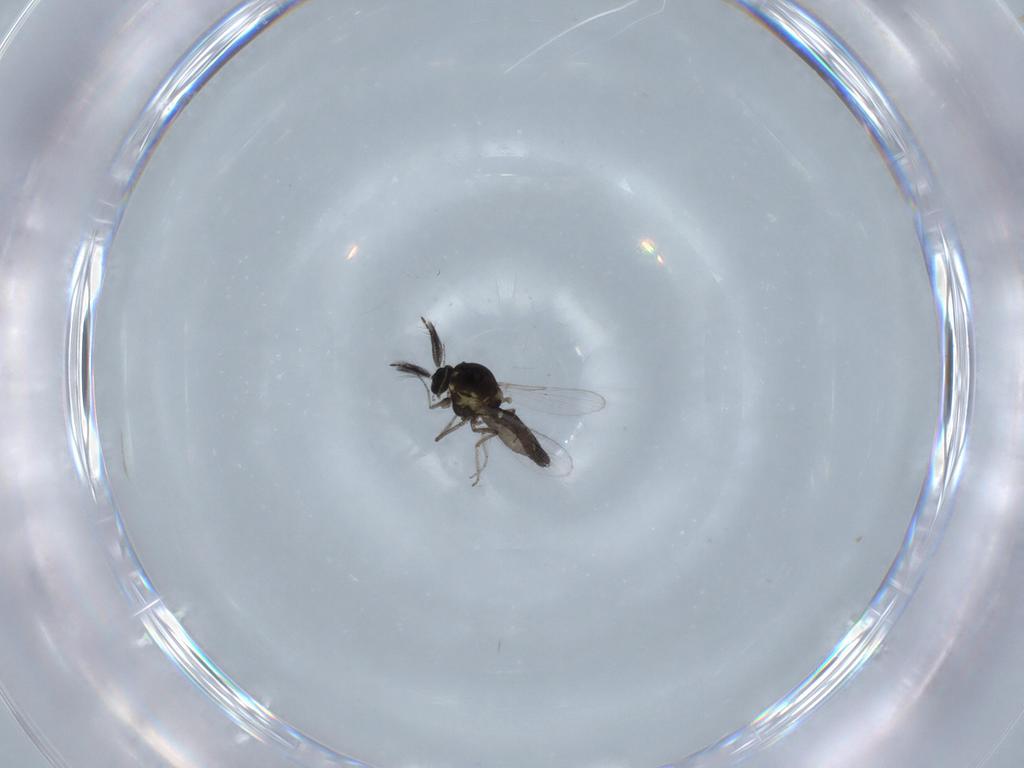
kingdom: Animalia
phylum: Arthropoda
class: Insecta
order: Diptera
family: Ceratopogonidae
